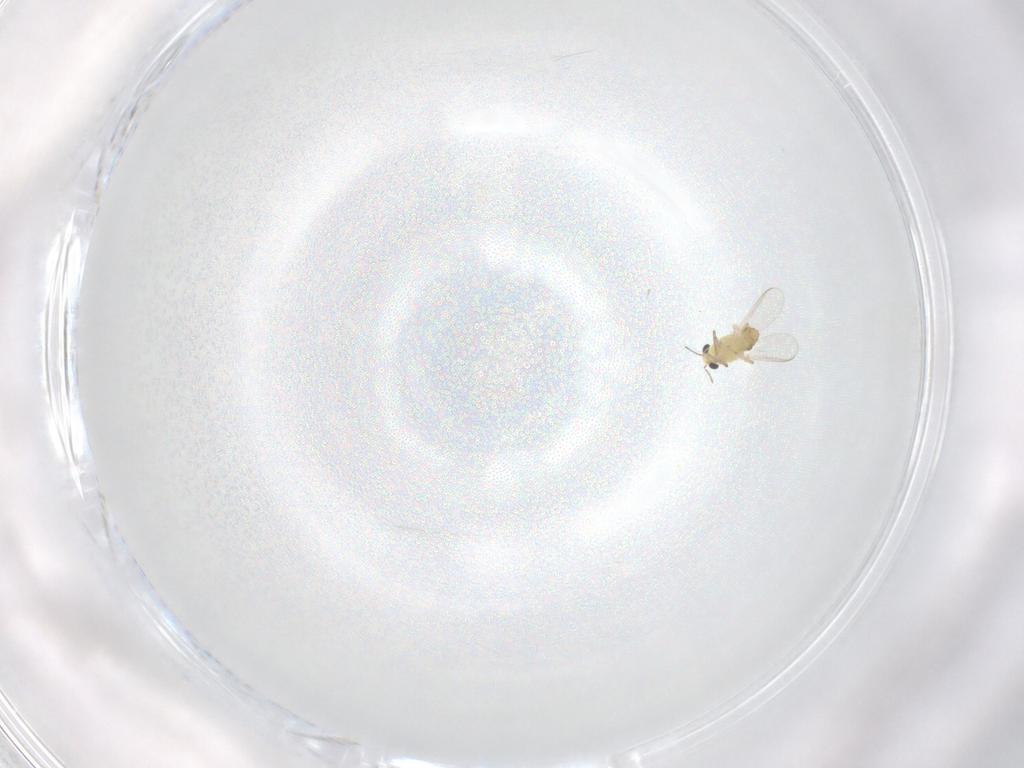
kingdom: Animalia
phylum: Arthropoda
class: Insecta
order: Diptera
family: Chironomidae
